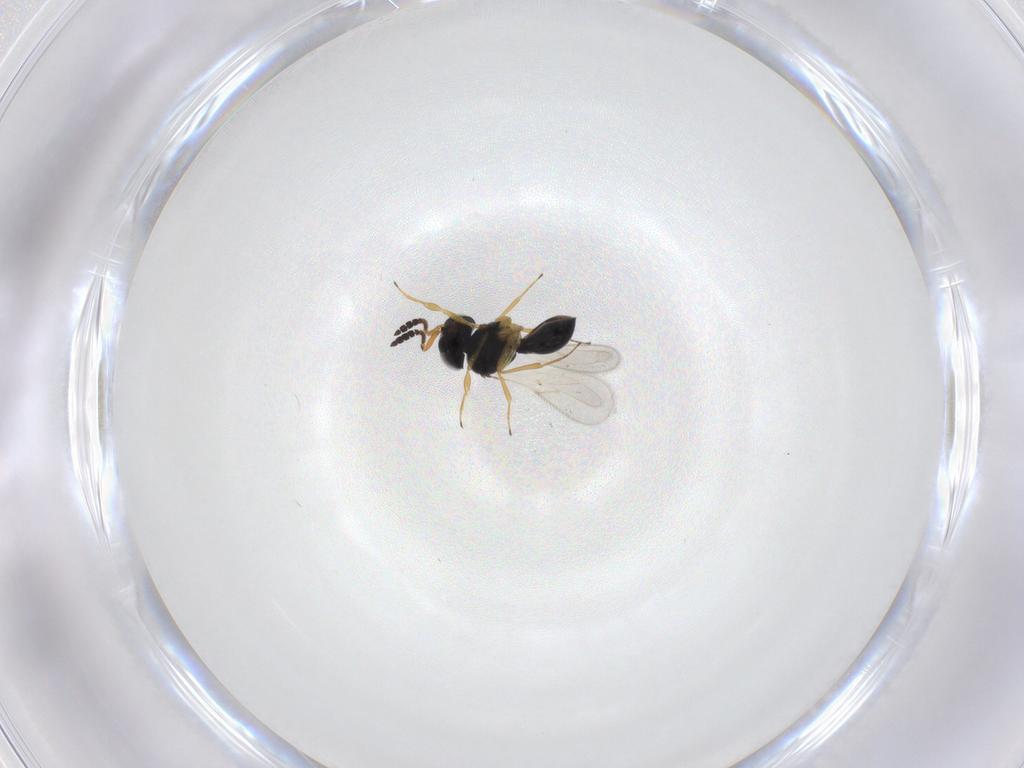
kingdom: Animalia
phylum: Arthropoda
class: Insecta
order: Hymenoptera
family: Scelionidae
